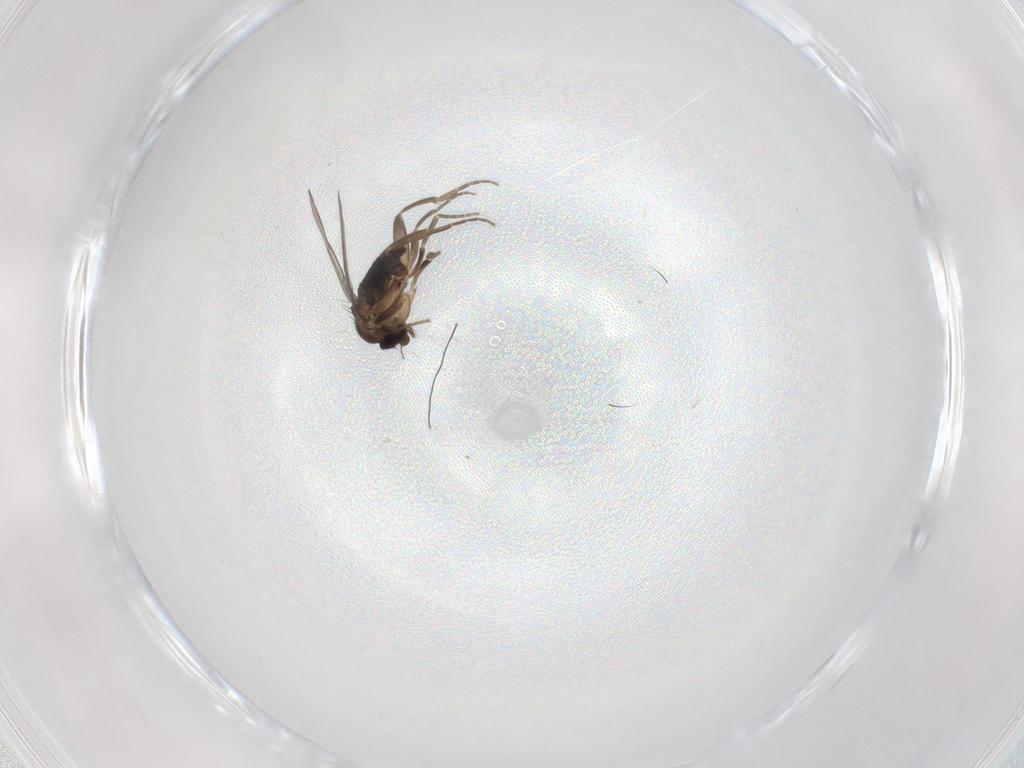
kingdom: Animalia
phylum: Arthropoda
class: Insecta
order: Diptera
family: Phoridae
